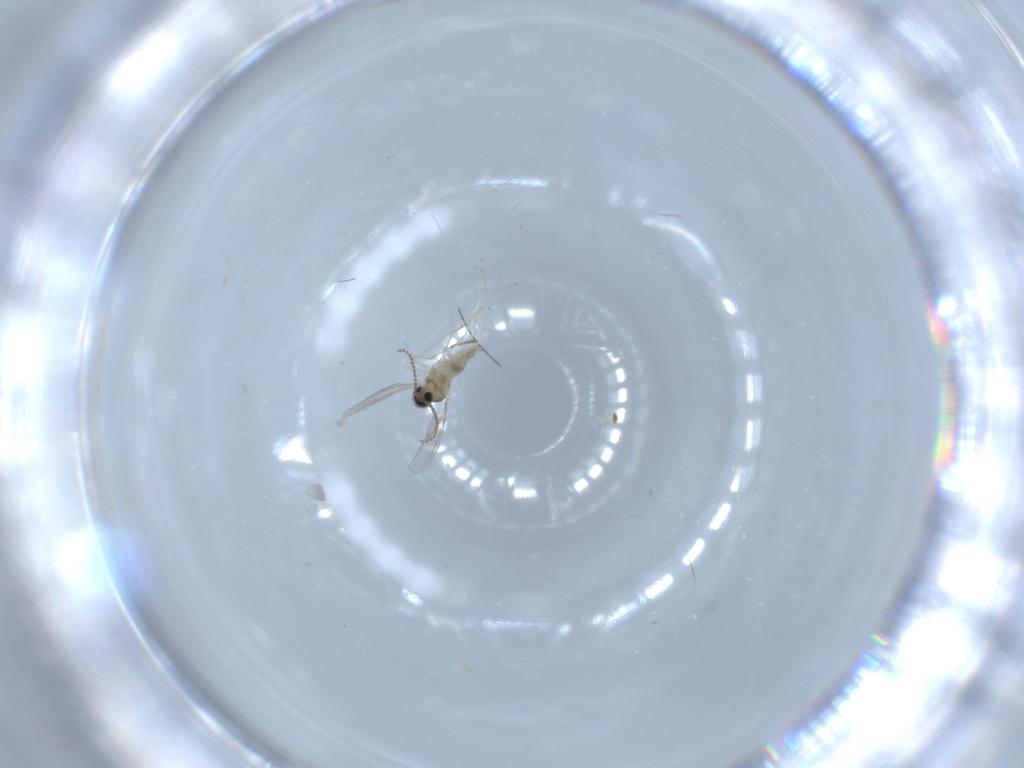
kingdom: Animalia
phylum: Arthropoda
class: Insecta
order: Diptera
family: Cecidomyiidae
